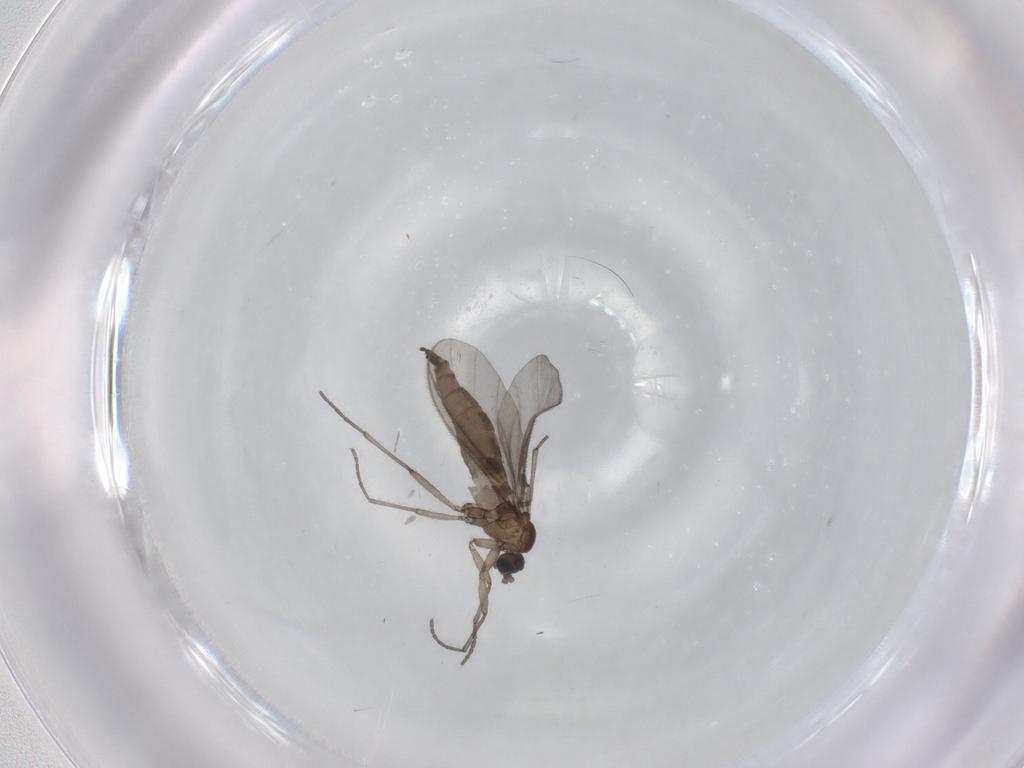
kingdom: Animalia
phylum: Arthropoda
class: Insecta
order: Diptera
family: Sciaridae
